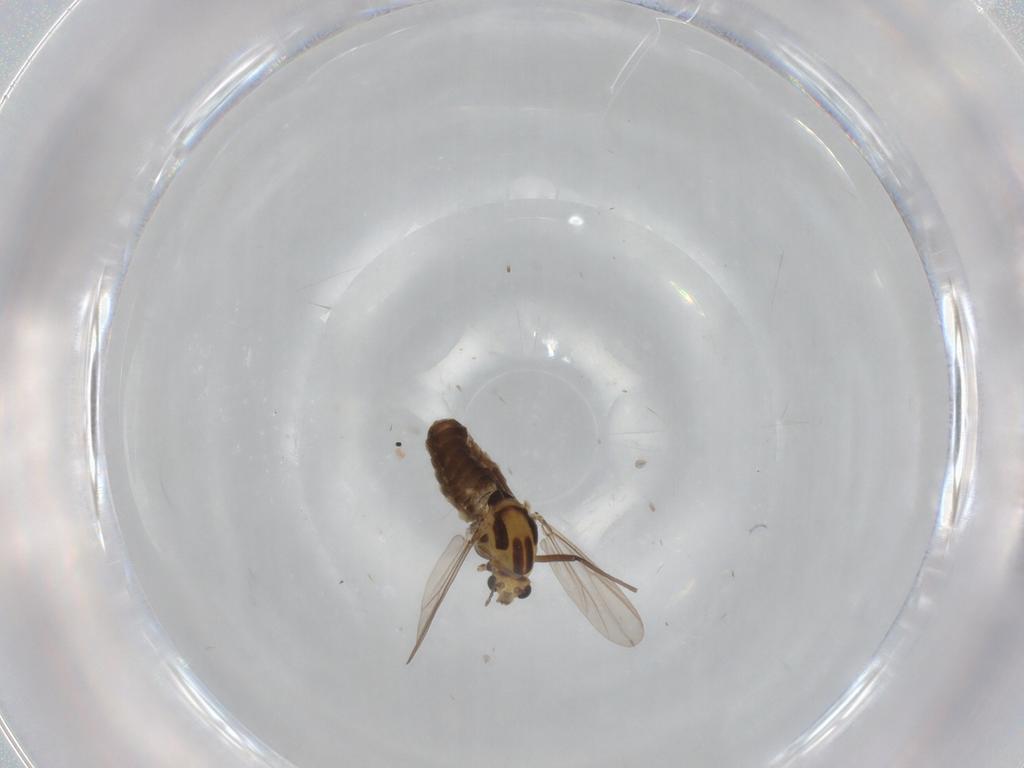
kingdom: Animalia
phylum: Arthropoda
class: Insecta
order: Diptera
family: Chironomidae
